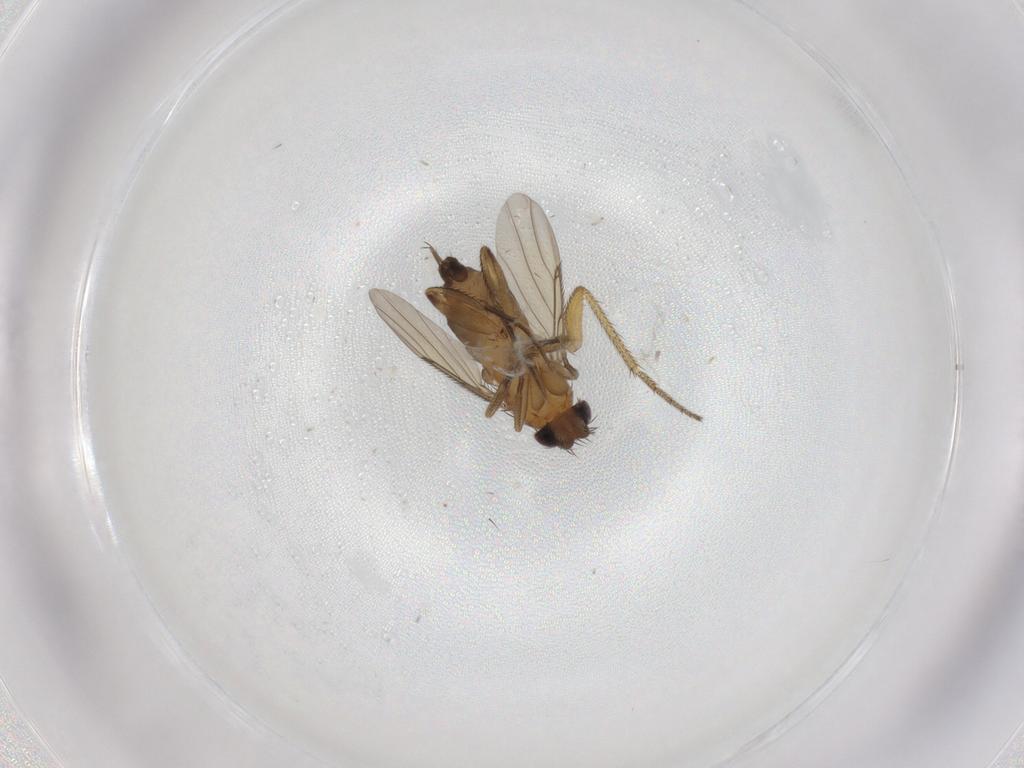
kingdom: Animalia
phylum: Arthropoda
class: Insecta
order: Diptera
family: Phoridae
